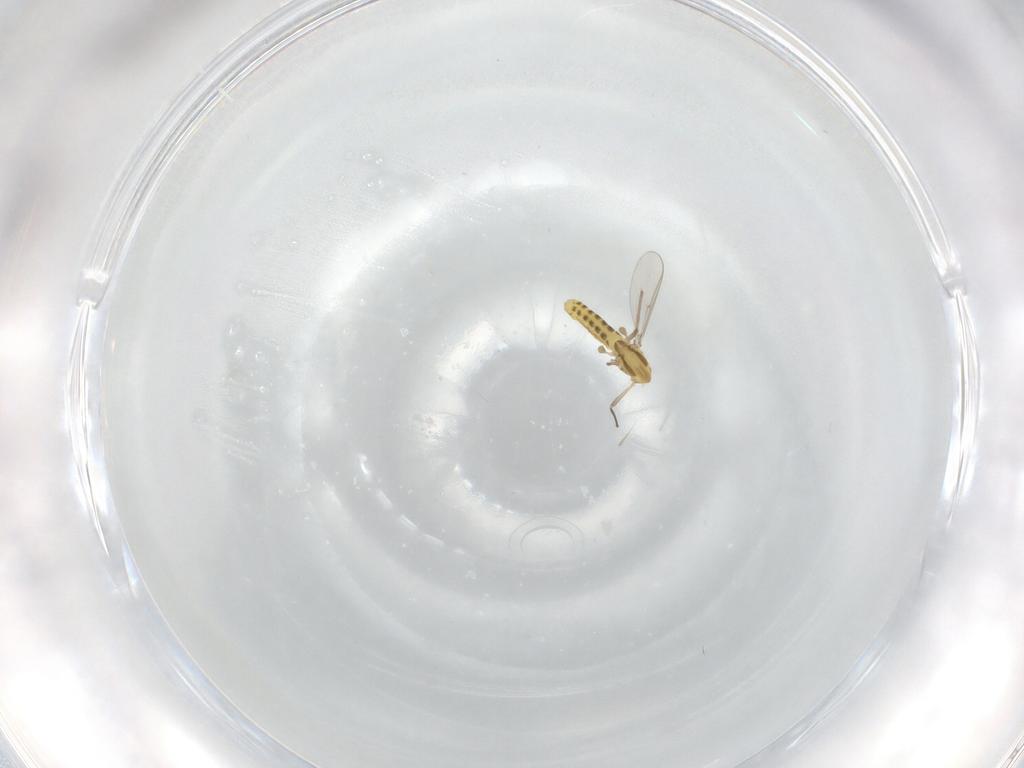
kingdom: Animalia
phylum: Arthropoda
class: Insecta
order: Diptera
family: Chironomidae
